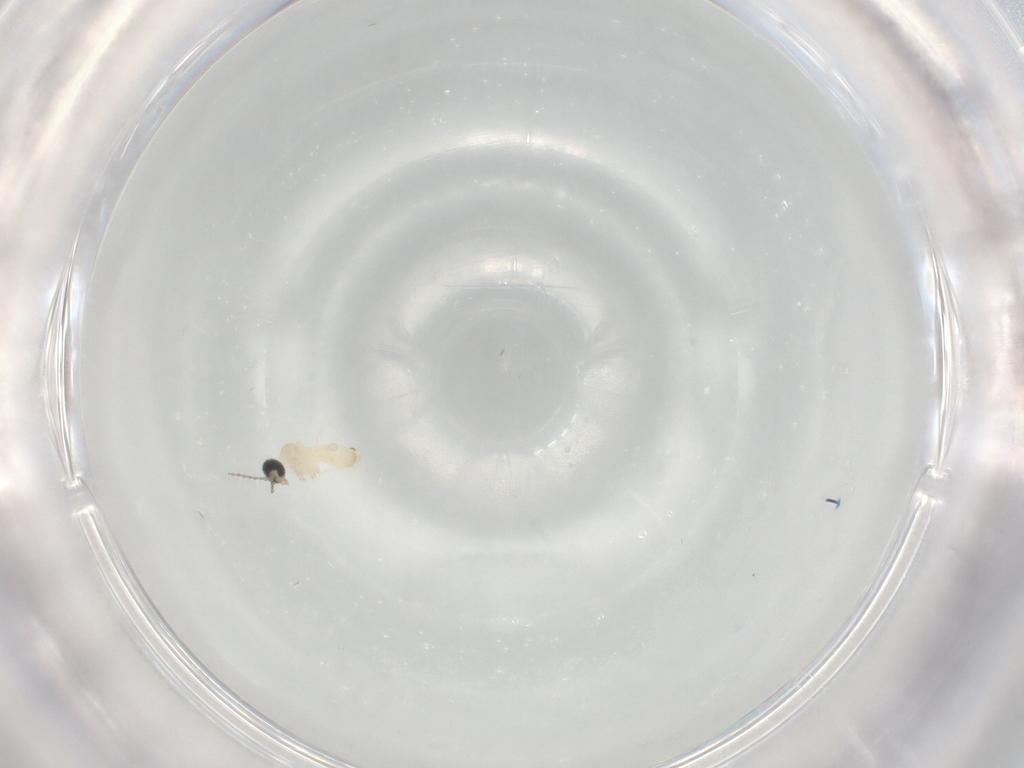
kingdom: Animalia
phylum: Arthropoda
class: Insecta
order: Diptera
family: Cecidomyiidae
